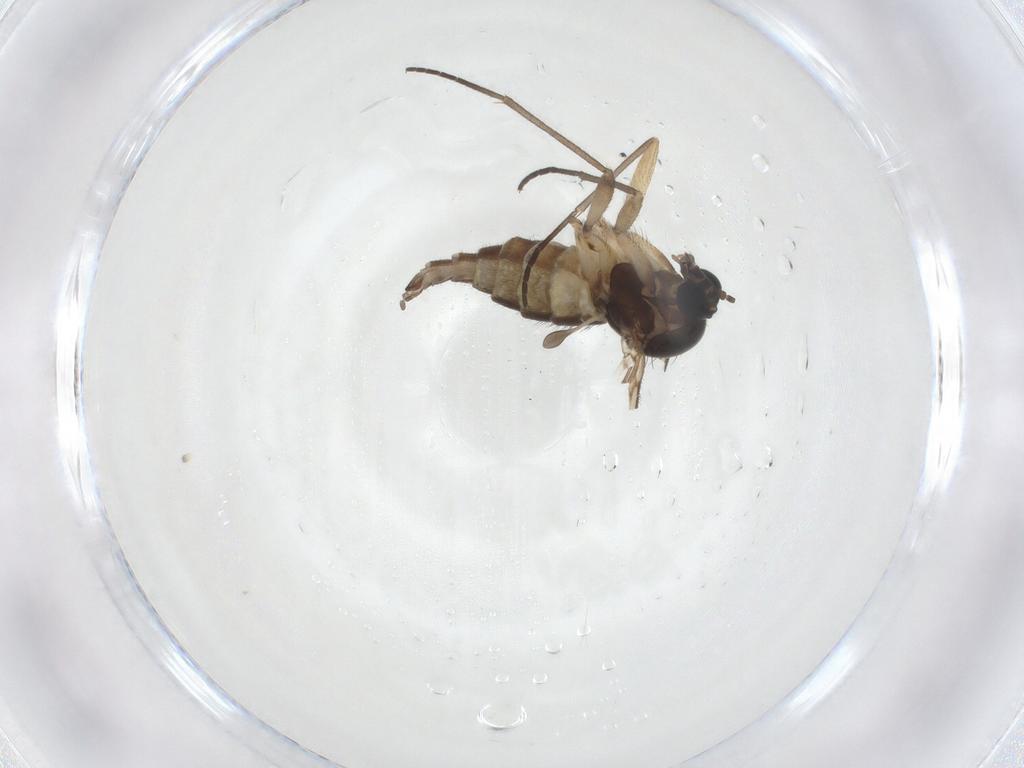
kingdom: Animalia
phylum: Arthropoda
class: Insecta
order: Diptera
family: Sciaridae
